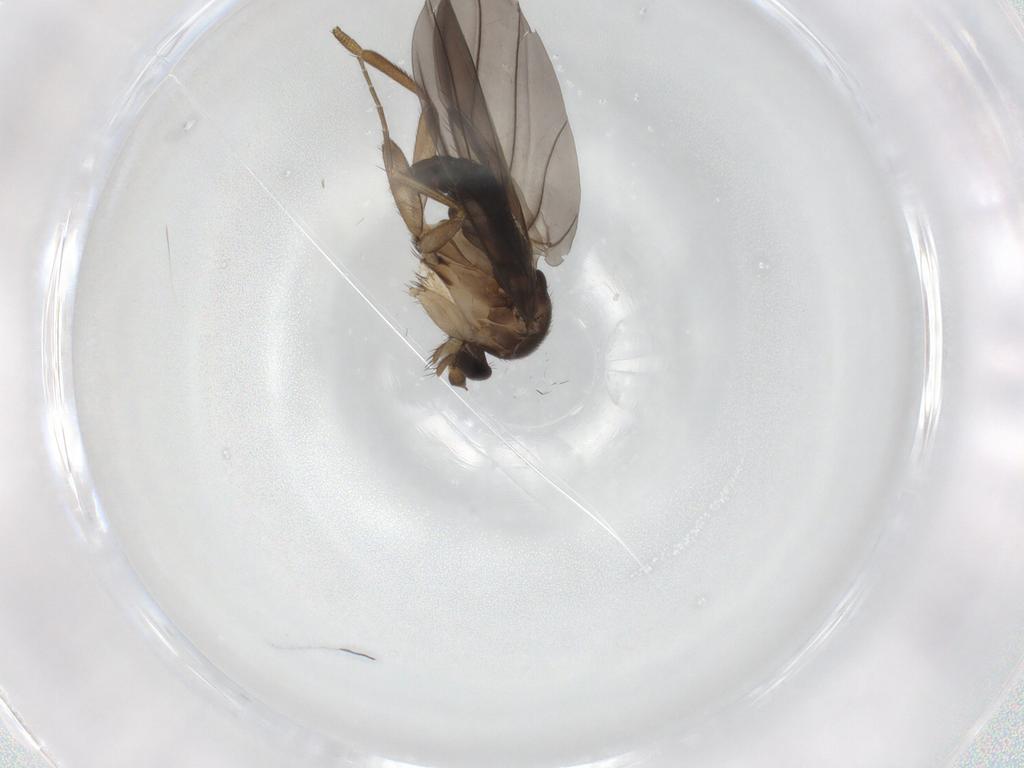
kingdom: Animalia
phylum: Arthropoda
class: Insecta
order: Diptera
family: Phoridae
